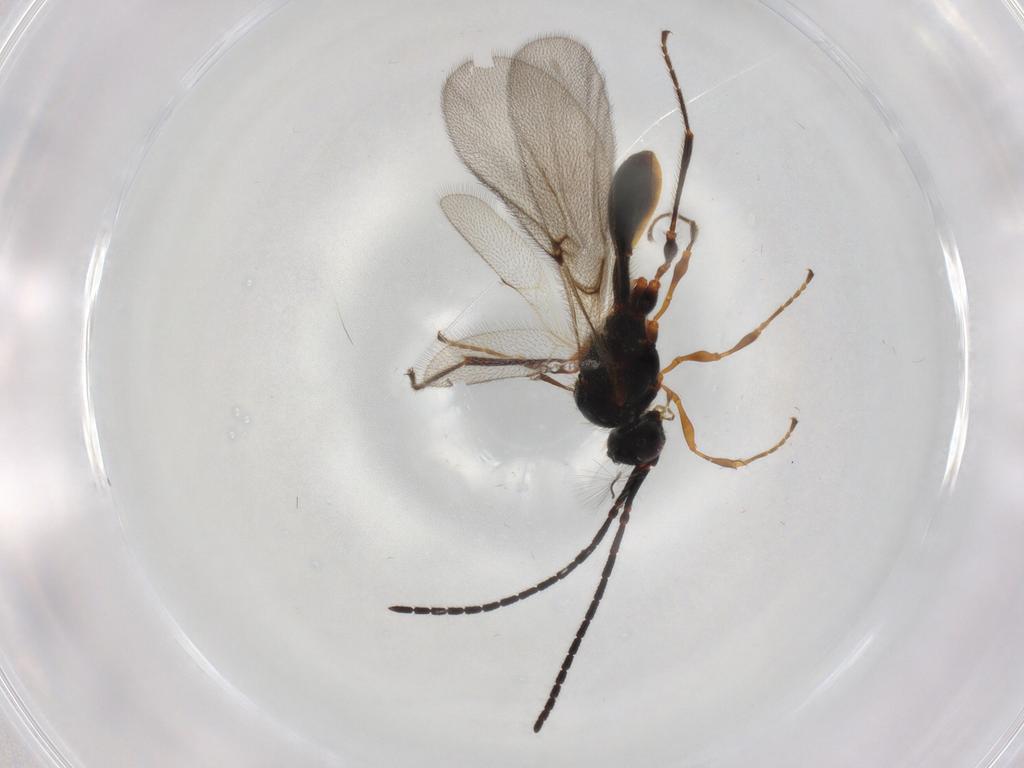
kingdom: Animalia
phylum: Arthropoda
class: Insecta
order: Hymenoptera
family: Diapriidae
